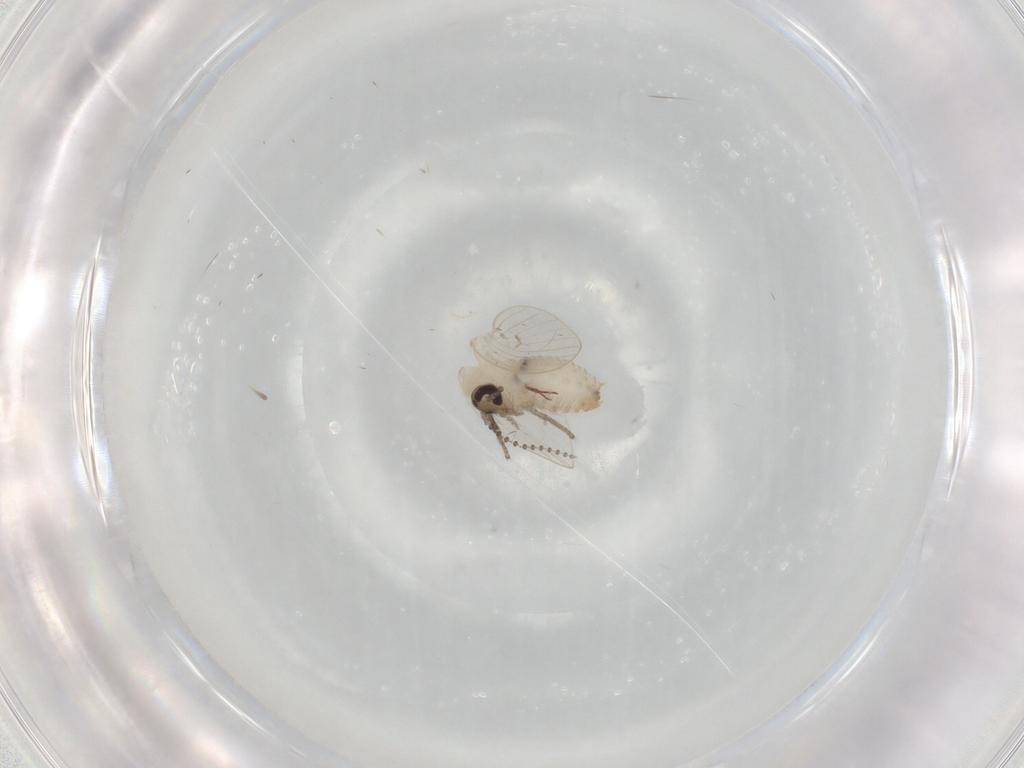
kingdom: Animalia
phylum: Arthropoda
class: Insecta
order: Diptera
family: Psychodidae
